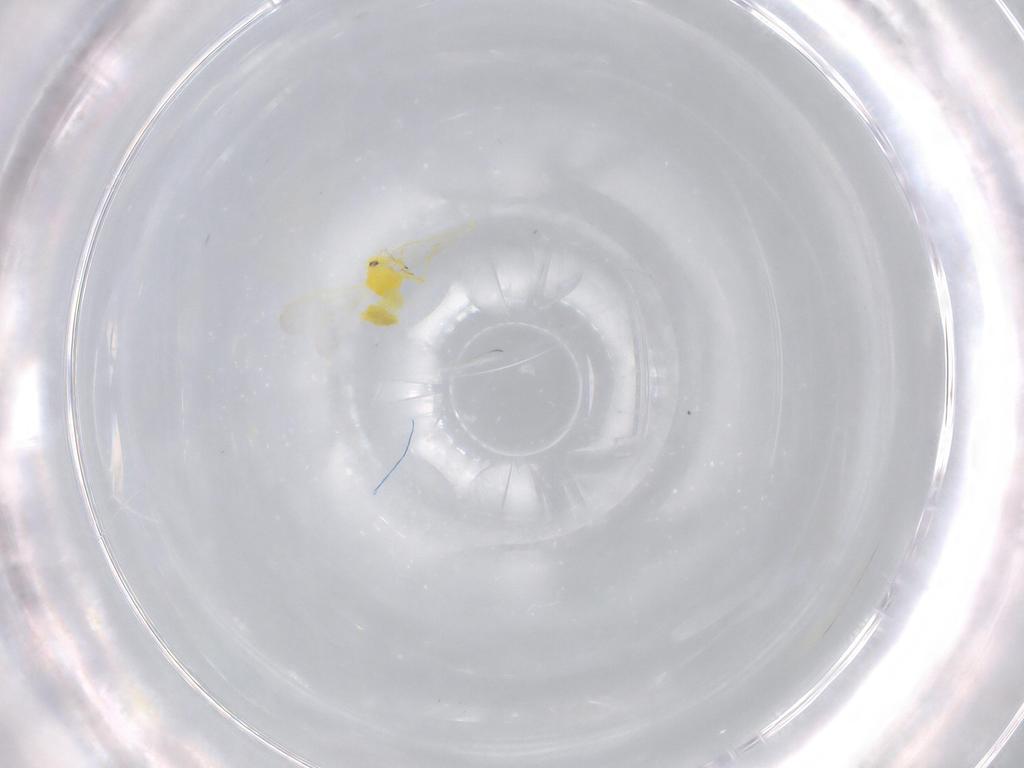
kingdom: Animalia
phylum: Arthropoda
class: Insecta
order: Hemiptera
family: Aleyrodidae
